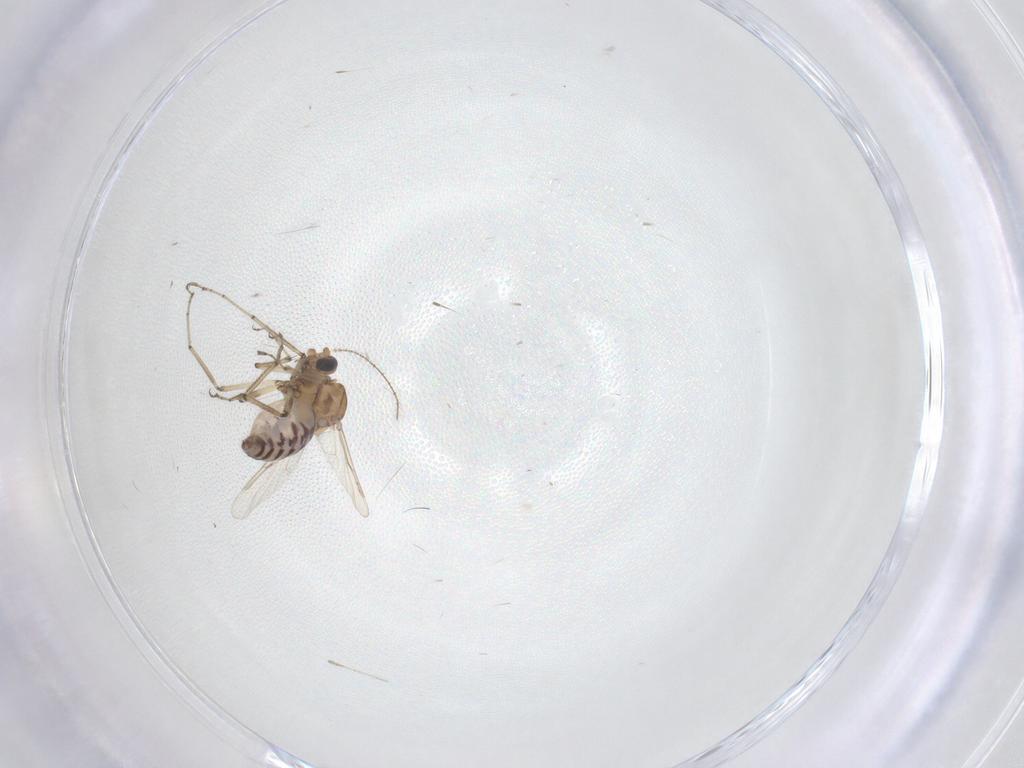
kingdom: Animalia
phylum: Arthropoda
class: Insecta
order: Diptera
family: Ceratopogonidae
